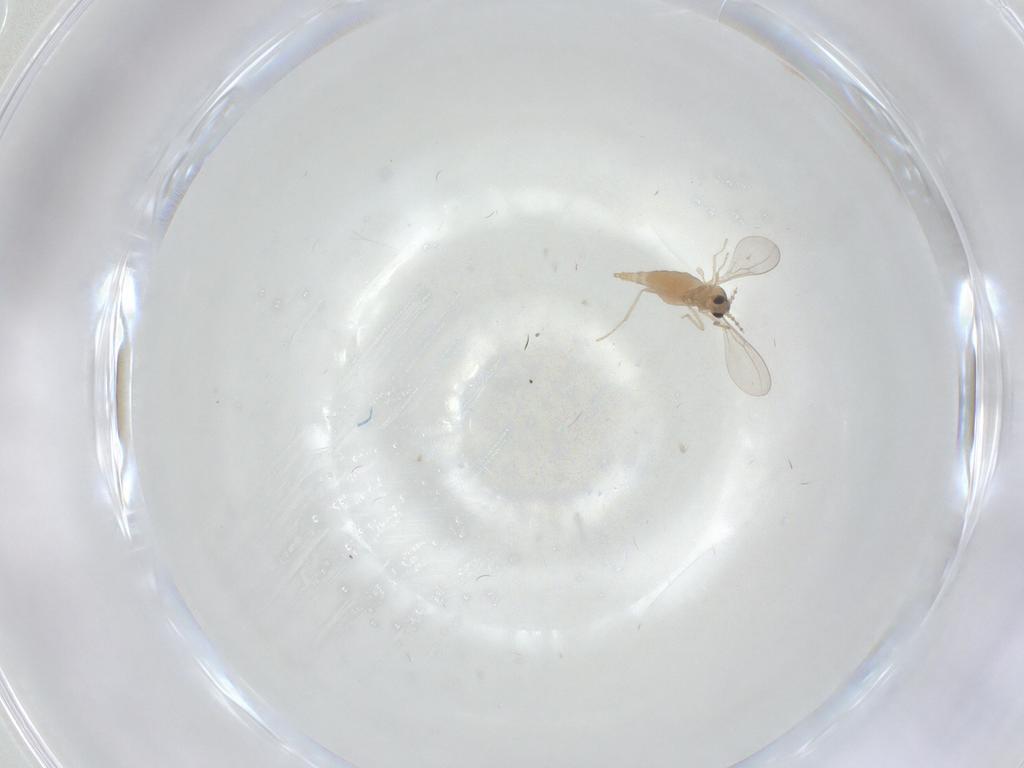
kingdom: Animalia
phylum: Arthropoda
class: Insecta
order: Diptera
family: Cecidomyiidae
